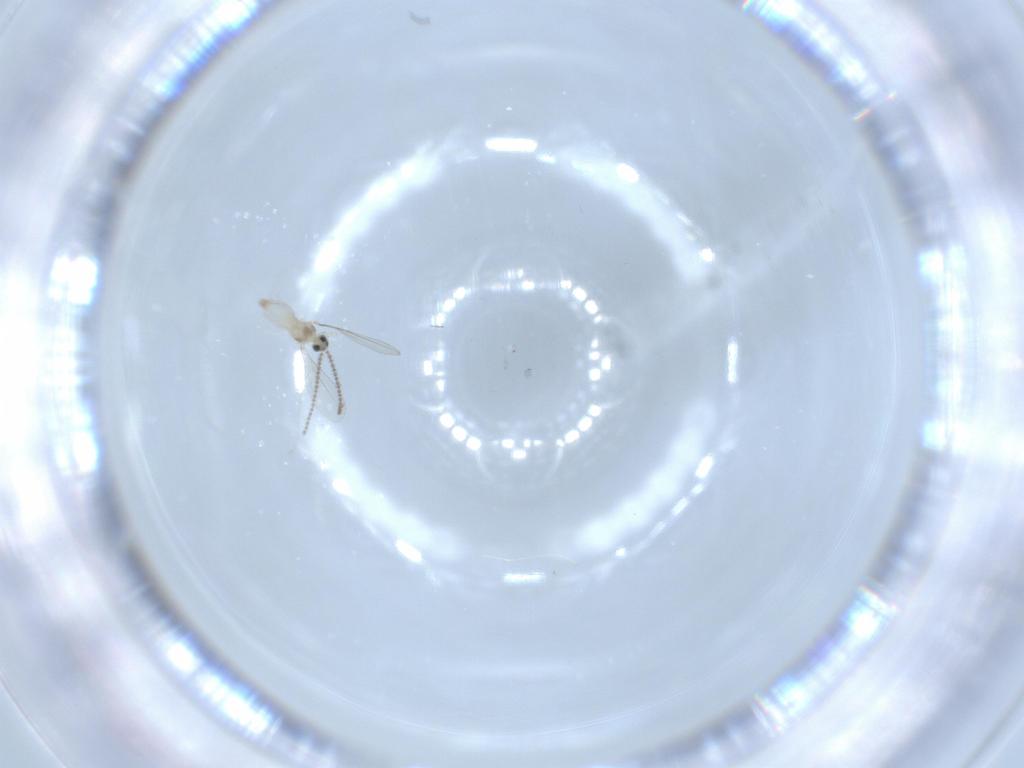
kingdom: Animalia
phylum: Arthropoda
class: Insecta
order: Diptera
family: Cecidomyiidae
